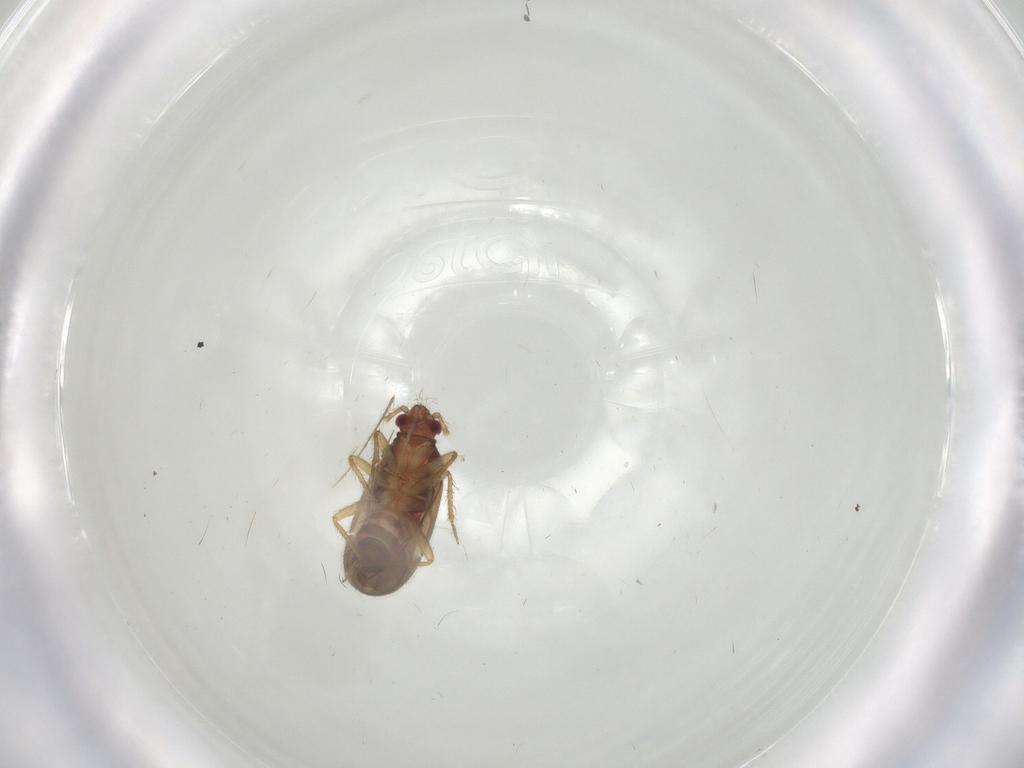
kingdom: Animalia
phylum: Arthropoda
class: Insecta
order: Hemiptera
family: Ceratocombidae
